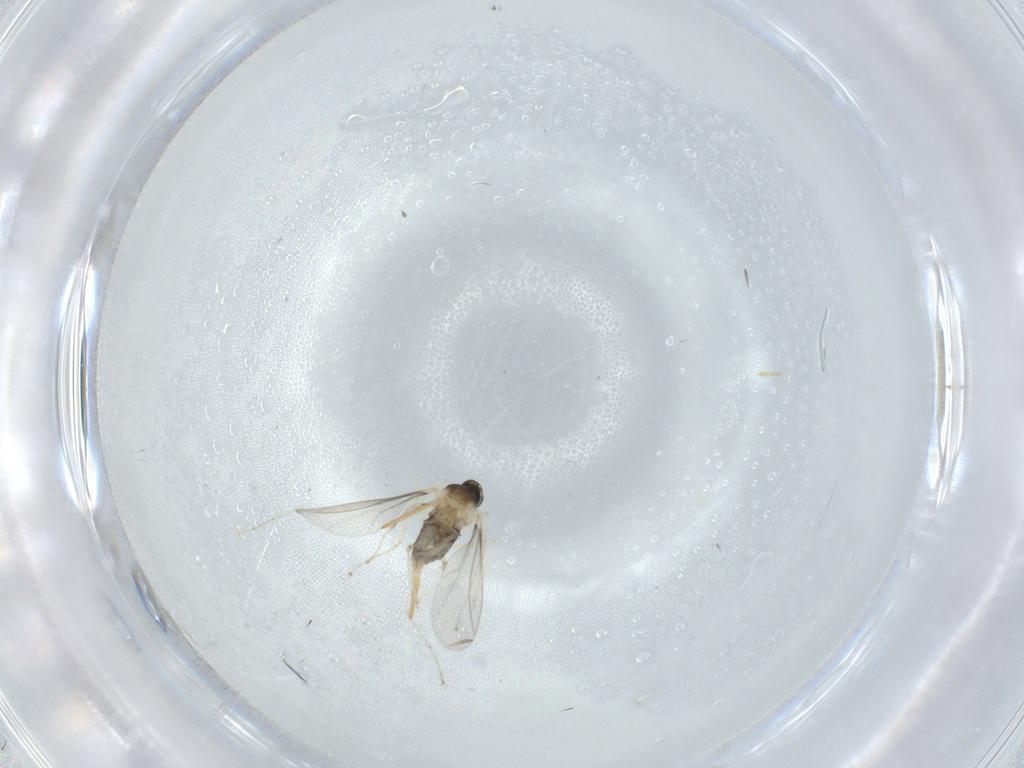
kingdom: Animalia
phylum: Arthropoda
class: Insecta
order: Diptera
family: Cecidomyiidae
